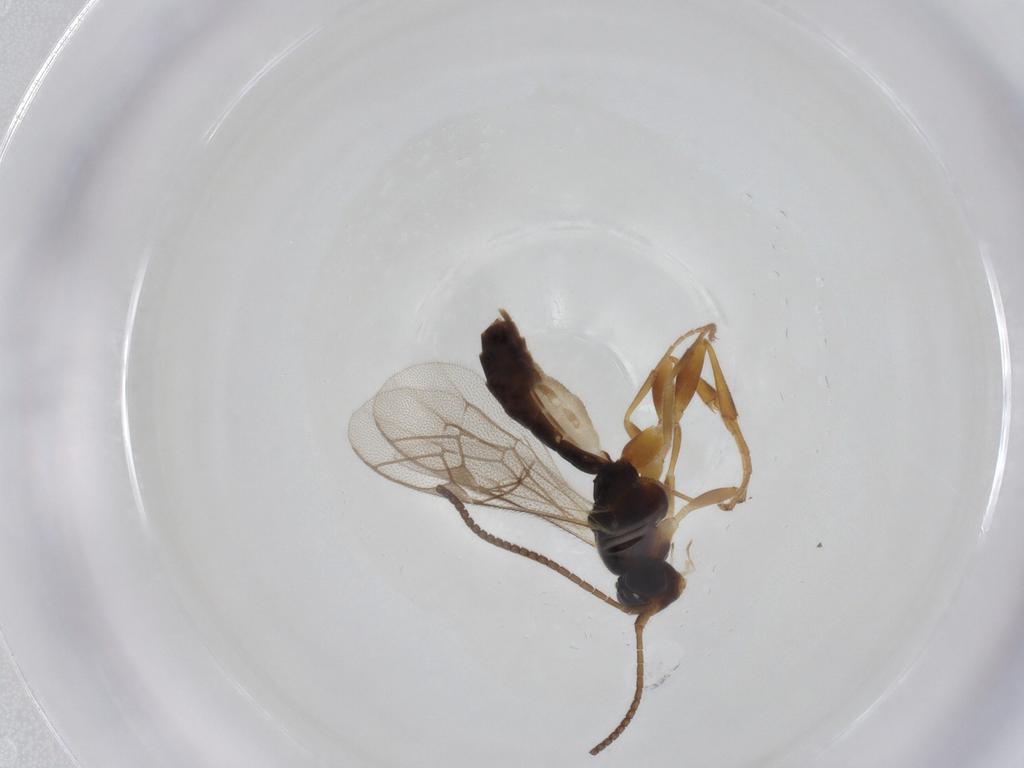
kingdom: Animalia
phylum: Arthropoda
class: Insecta
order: Hymenoptera
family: Ichneumonidae
